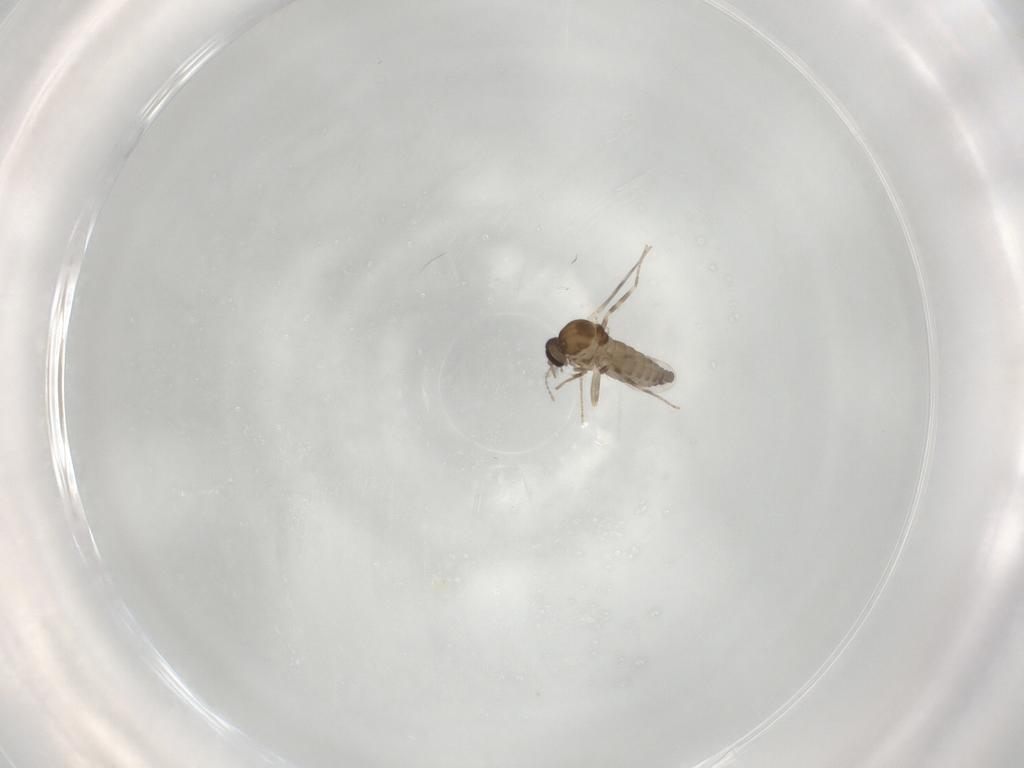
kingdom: Animalia
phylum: Arthropoda
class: Insecta
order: Diptera
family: Ceratopogonidae
